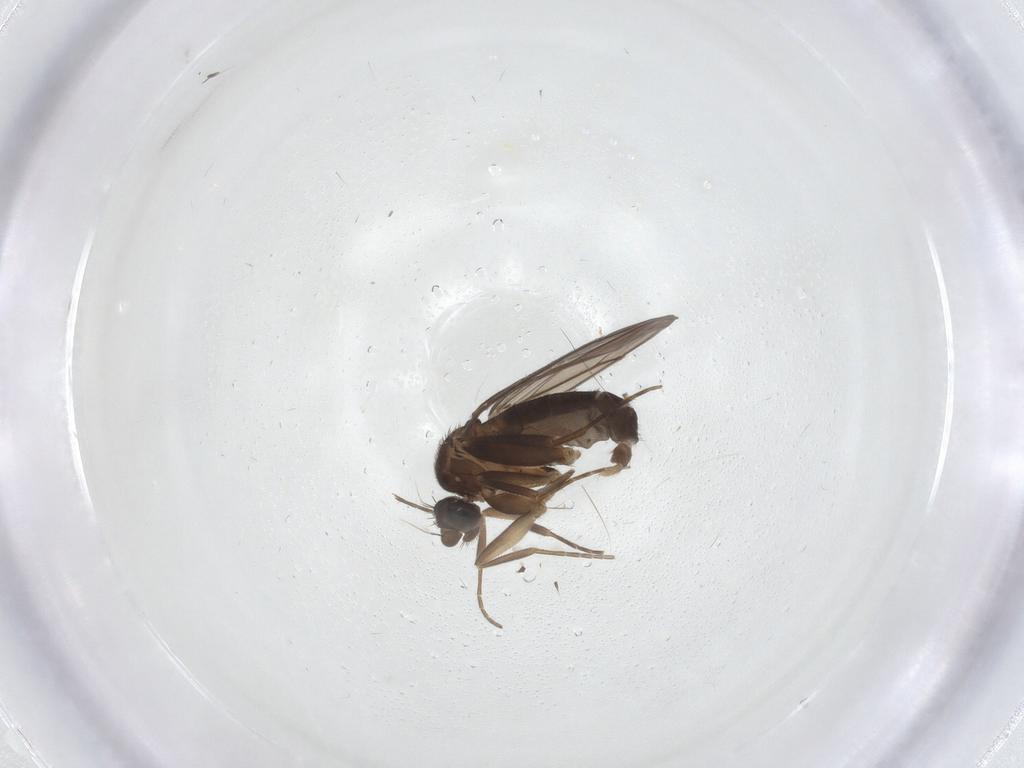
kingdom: Animalia
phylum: Arthropoda
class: Insecta
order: Diptera
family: Phoridae
